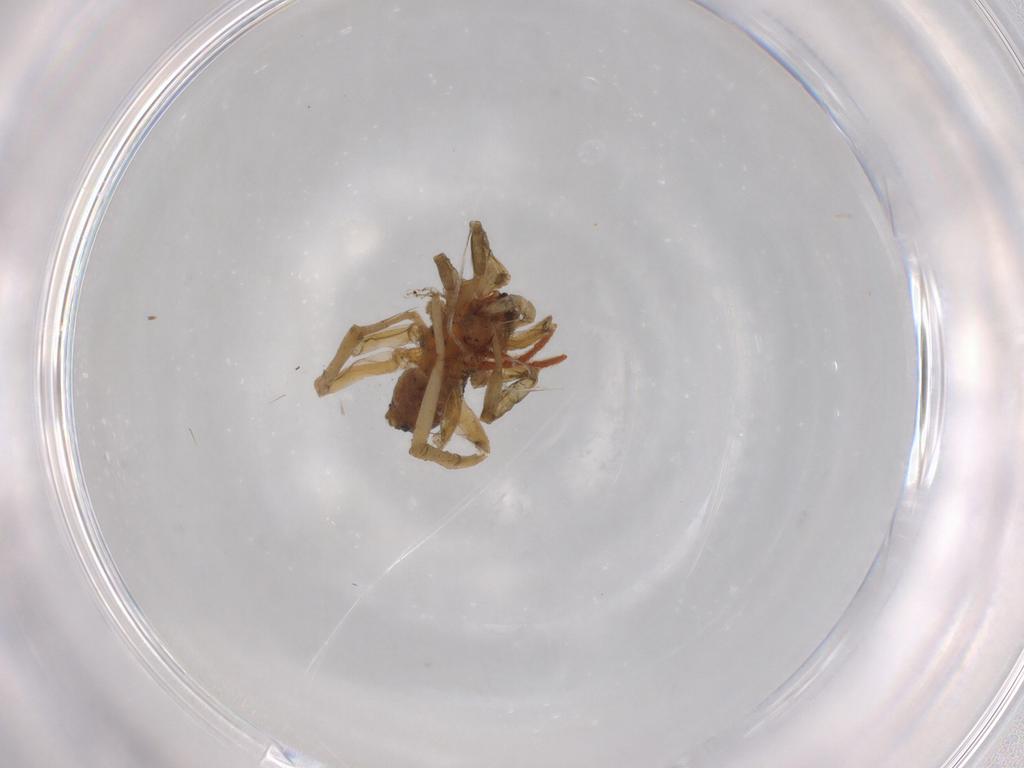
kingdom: Animalia
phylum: Arthropoda
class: Arachnida
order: Araneae
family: Lycosidae
